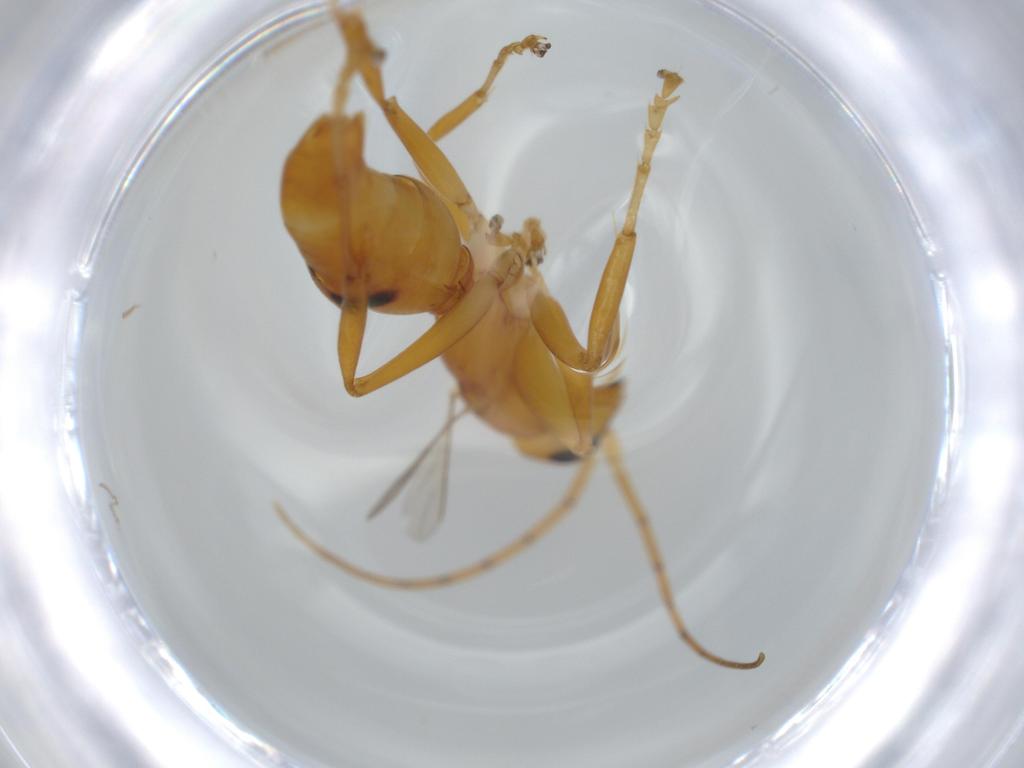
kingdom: Animalia
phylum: Arthropoda
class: Insecta
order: Hymenoptera
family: Rhopalosomatidae
